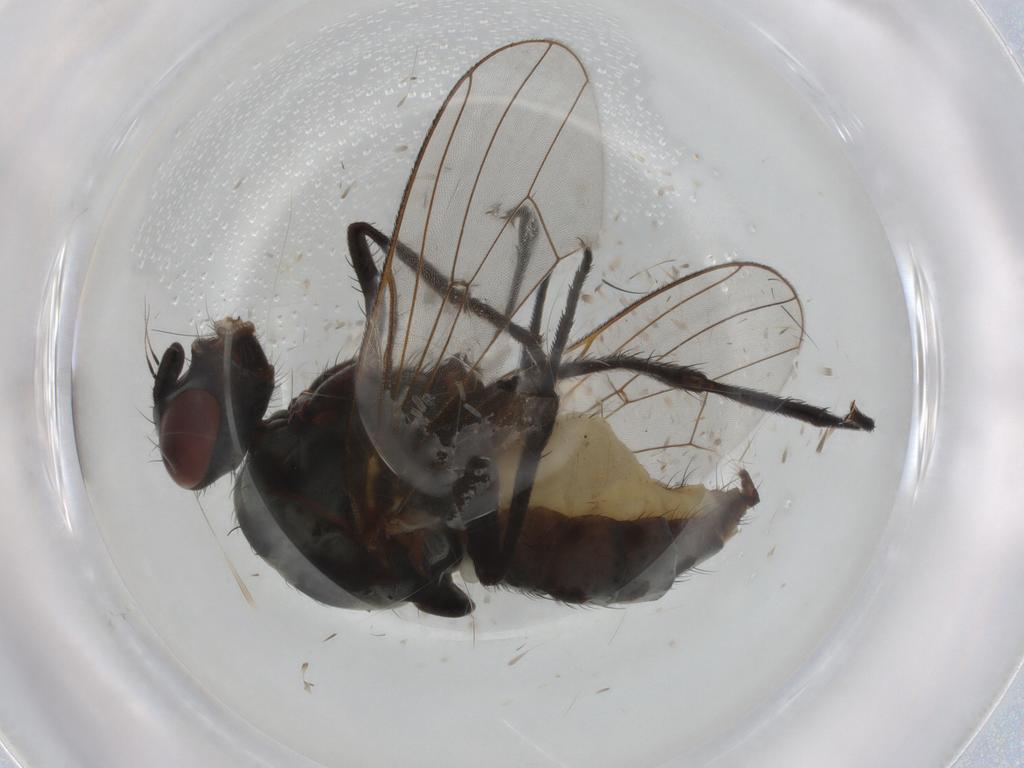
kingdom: Animalia
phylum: Arthropoda
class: Insecta
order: Diptera
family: Anthomyiidae
